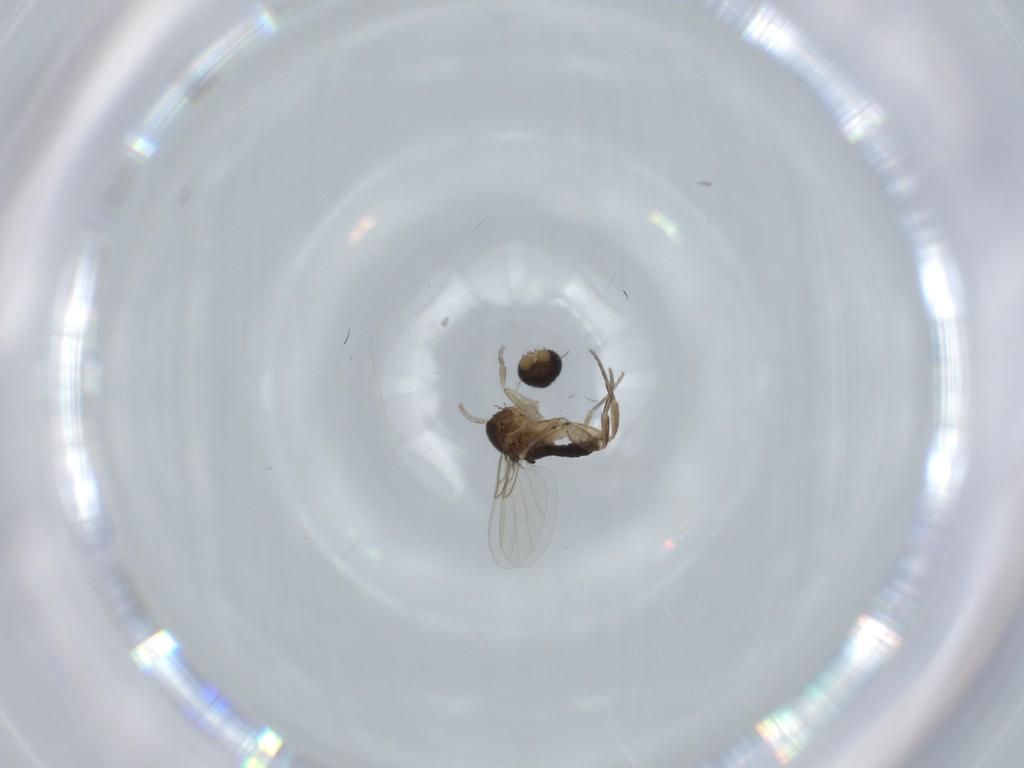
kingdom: Animalia
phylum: Arthropoda
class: Insecta
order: Diptera
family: Phoridae
